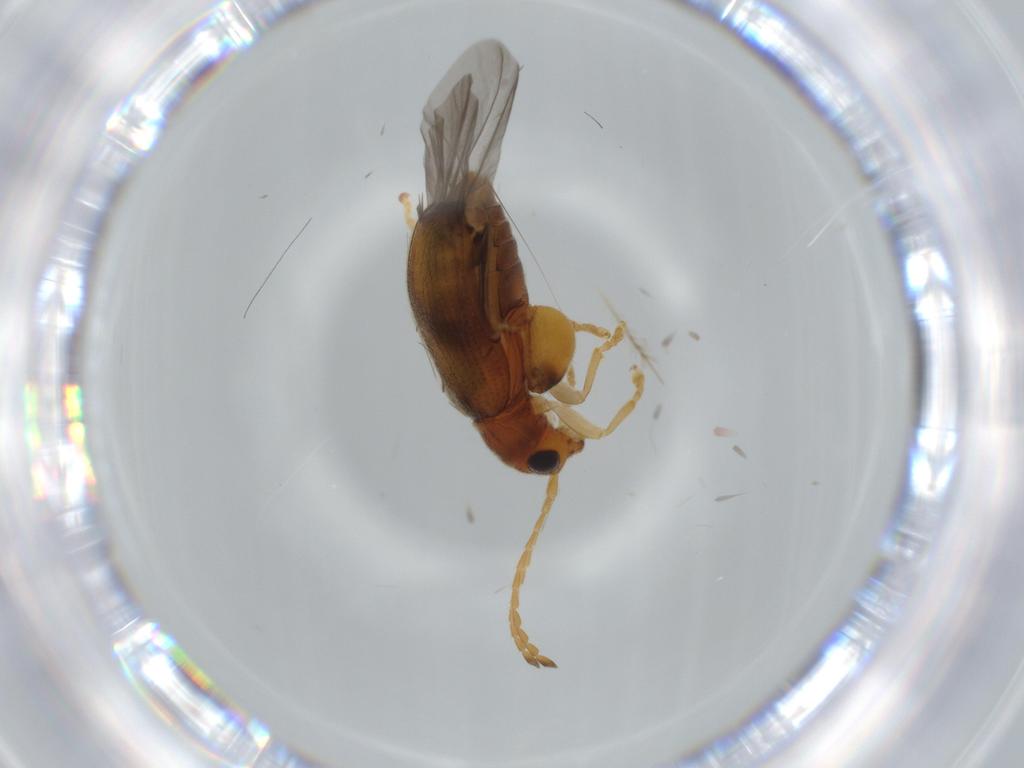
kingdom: Animalia
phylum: Arthropoda
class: Insecta
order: Coleoptera
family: Chrysomelidae
